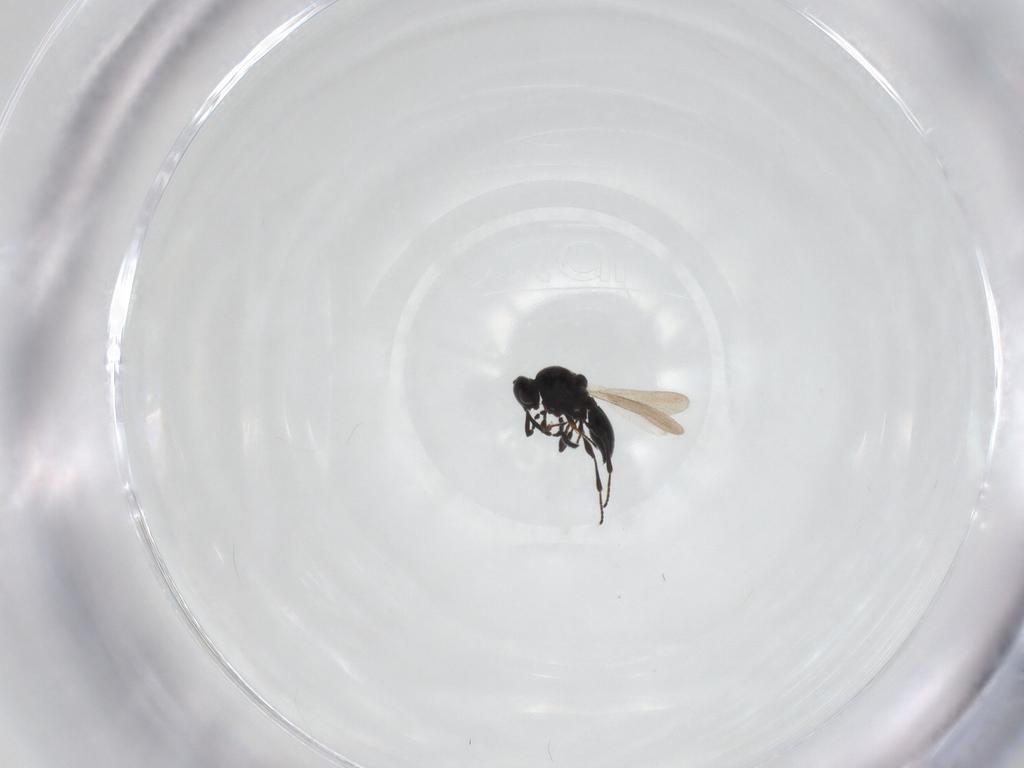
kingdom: Animalia
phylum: Arthropoda
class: Insecta
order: Hymenoptera
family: Platygastridae
